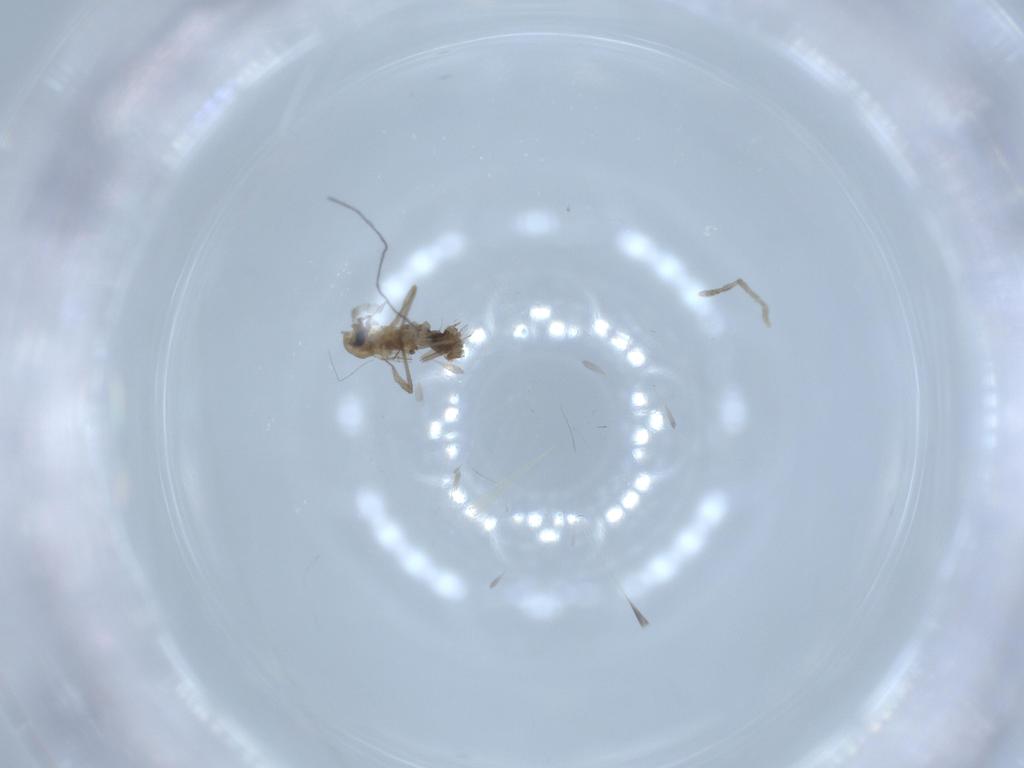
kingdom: Animalia
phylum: Arthropoda
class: Insecta
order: Diptera
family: Chironomidae
